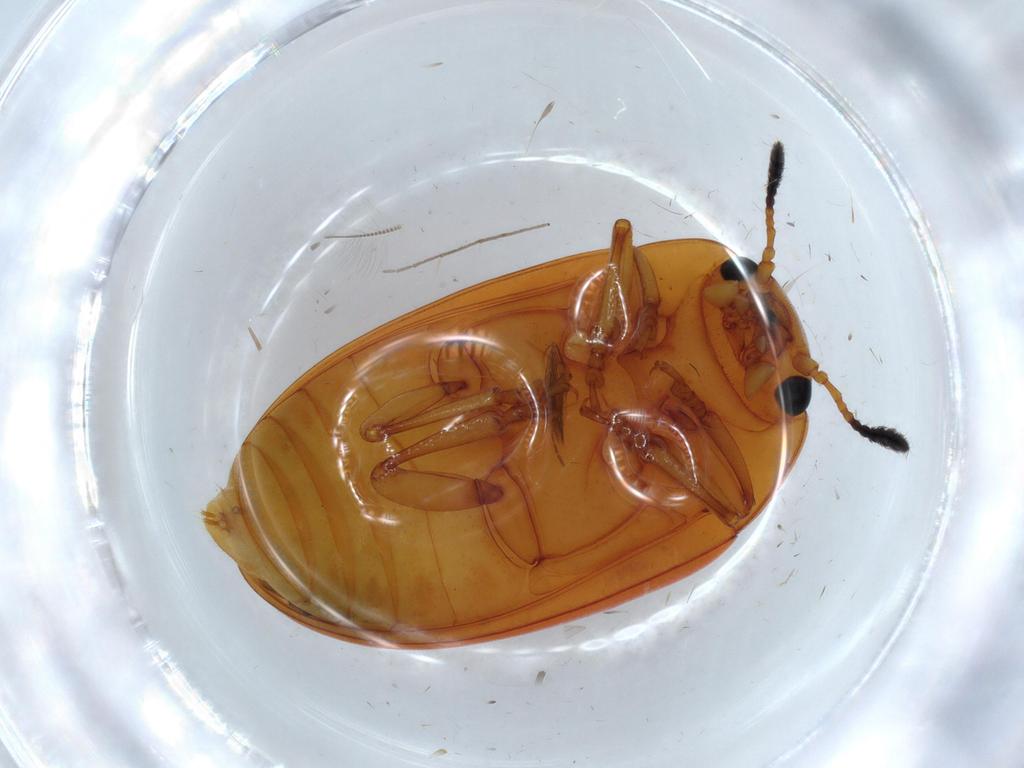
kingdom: Animalia
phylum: Arthropoda
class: Insecta
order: Coleoptera
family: Erotylidae
